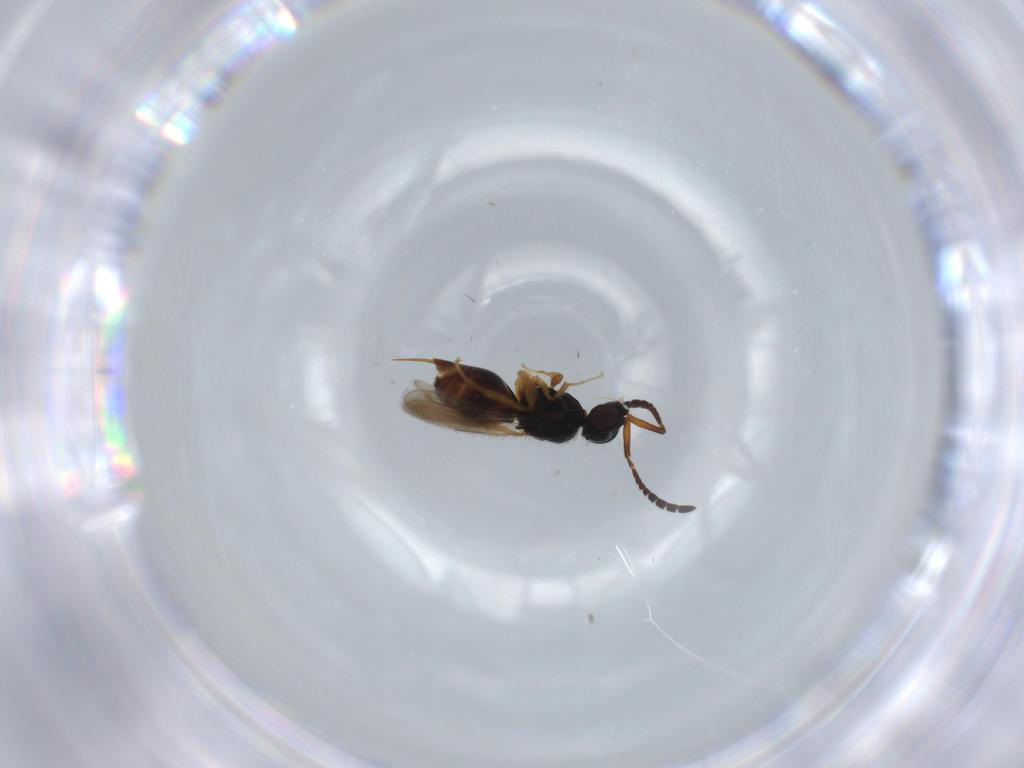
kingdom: Animalia
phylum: Arthropoda
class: Insecta
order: Hymenoptera
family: Ceraphronidae
